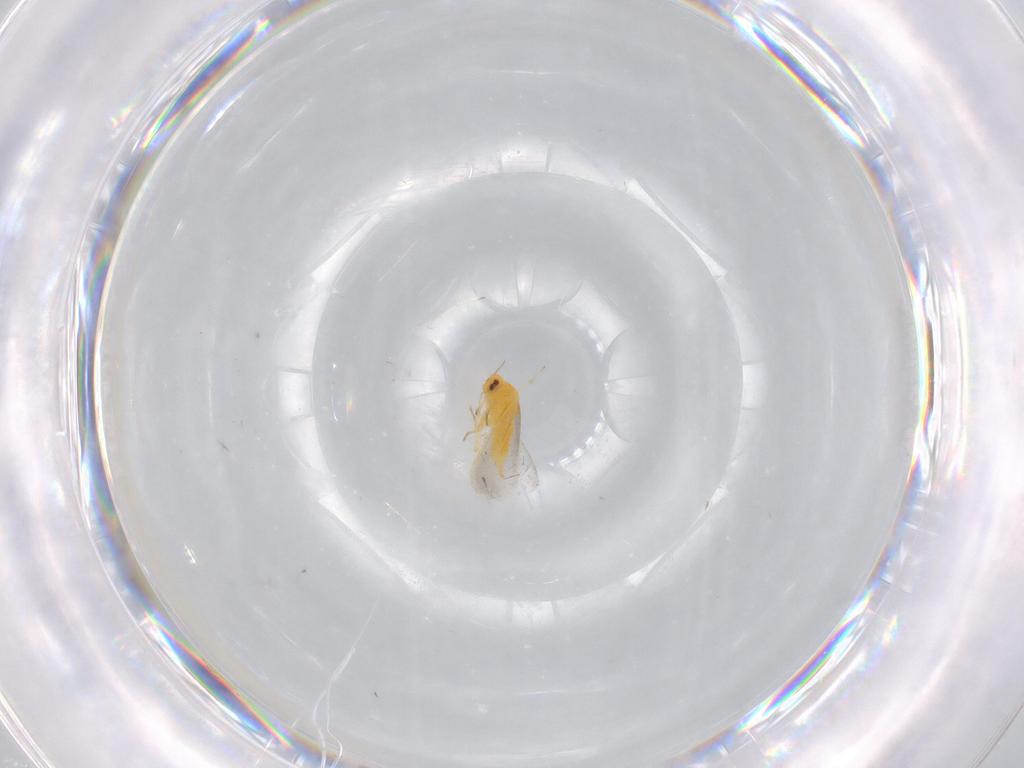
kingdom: Animalia
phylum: Arthropoda
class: Insecta
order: Hemiptera
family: Aleyrodidae
